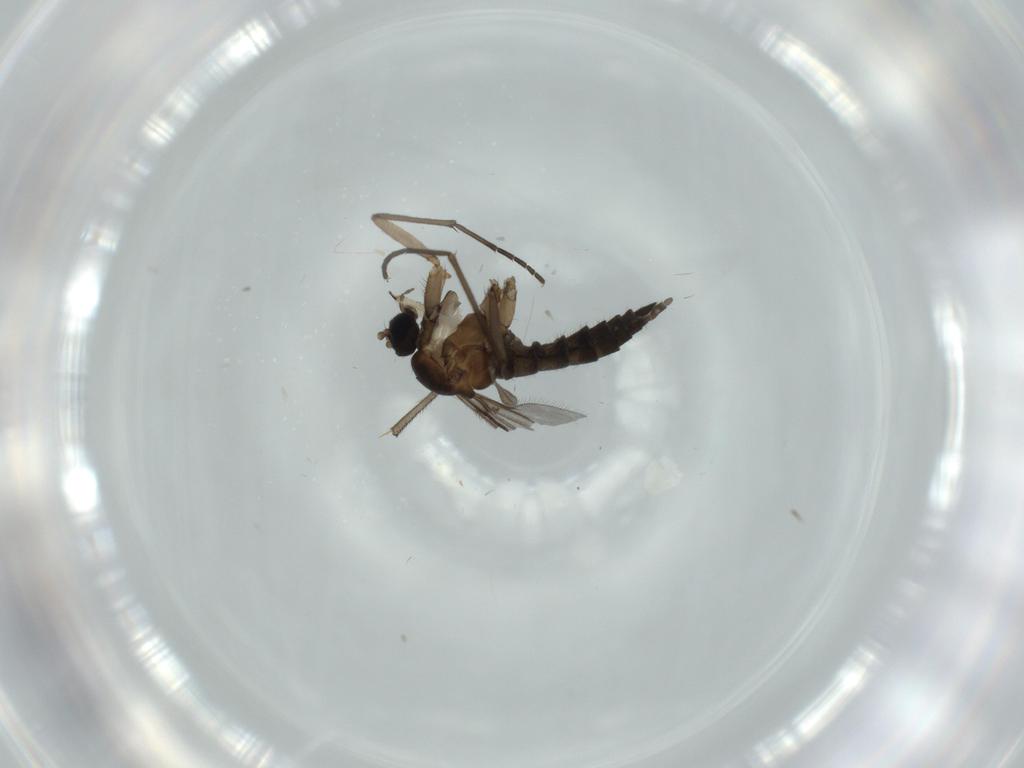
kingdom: Animalia
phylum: Arthropoda
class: Insecta
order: Diptera
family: Sciaridae
